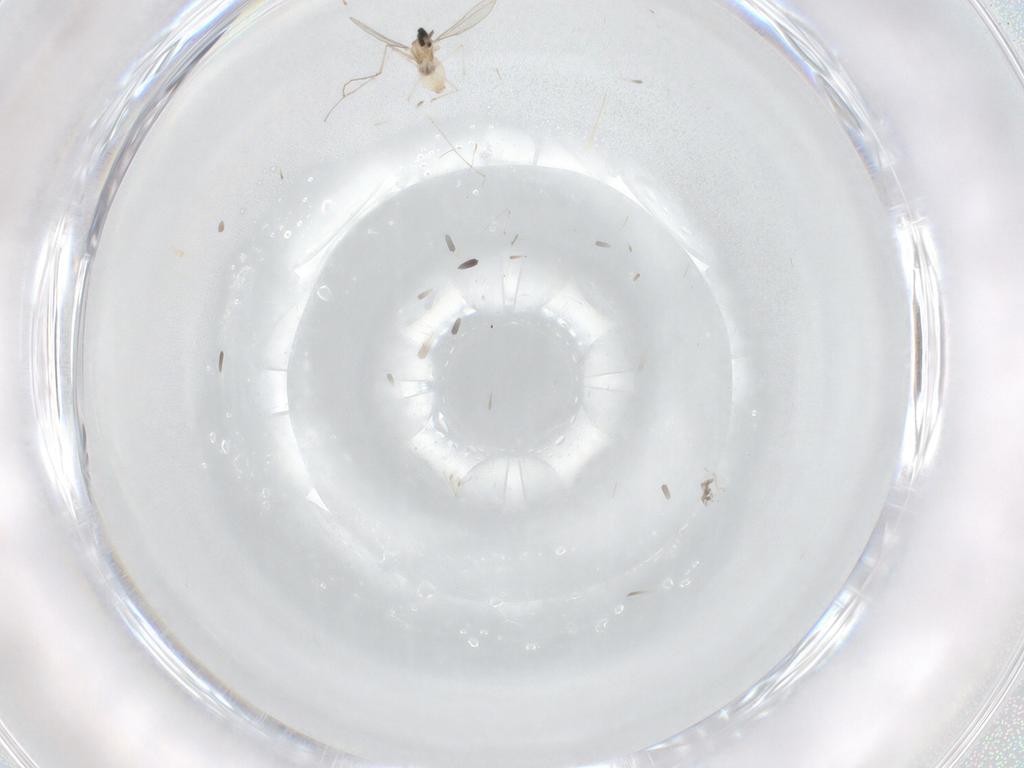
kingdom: Animalia
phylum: Arthropoda
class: Insecta
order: Diptera
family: Cecidomyiidae
